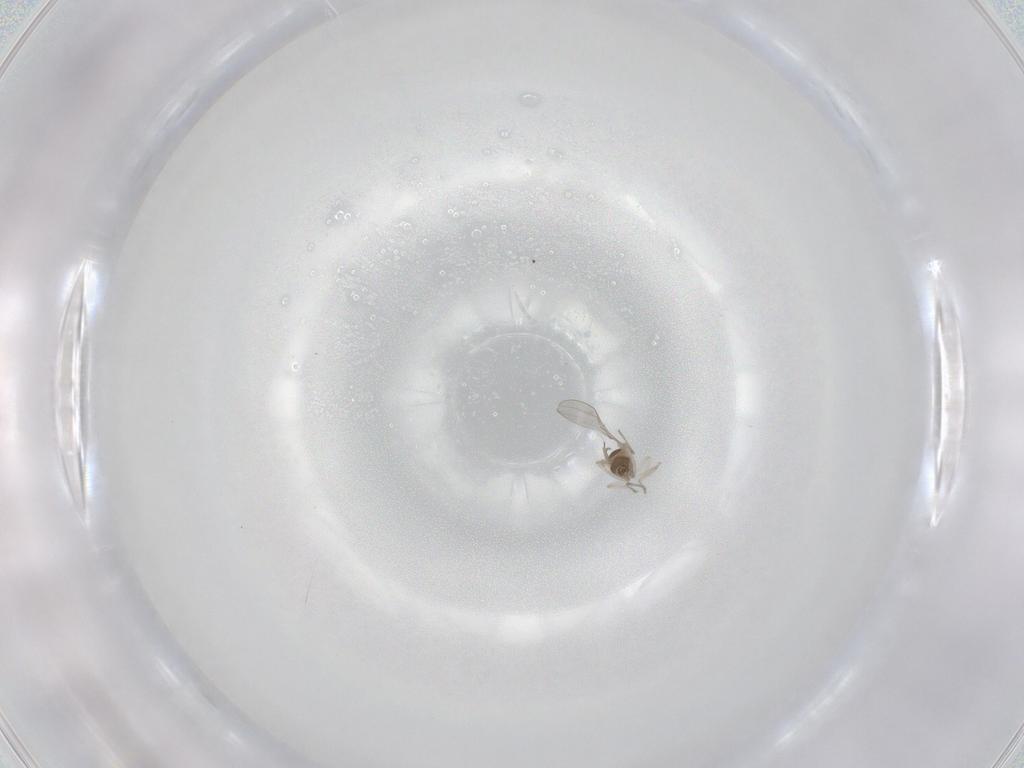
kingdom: Animalia
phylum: Arthropoda
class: Insecta
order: Diptera
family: Cecidomyiidae
